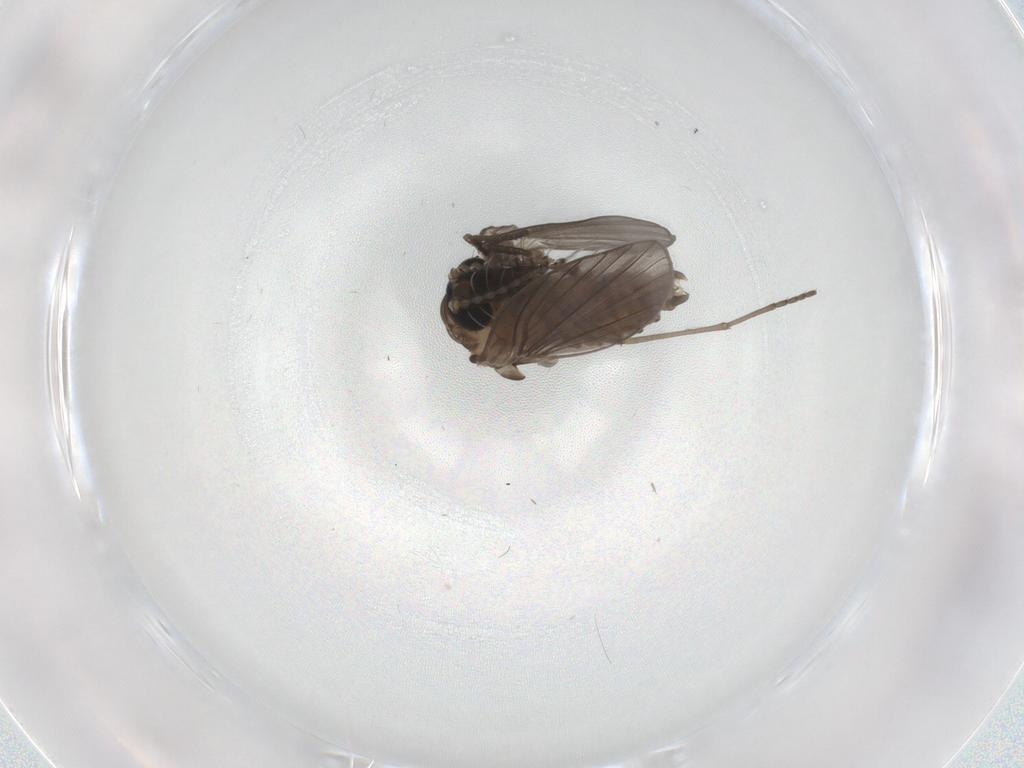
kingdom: Animalia
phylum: Arthropoda
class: Insecta
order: Diptera
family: Psychodidae
